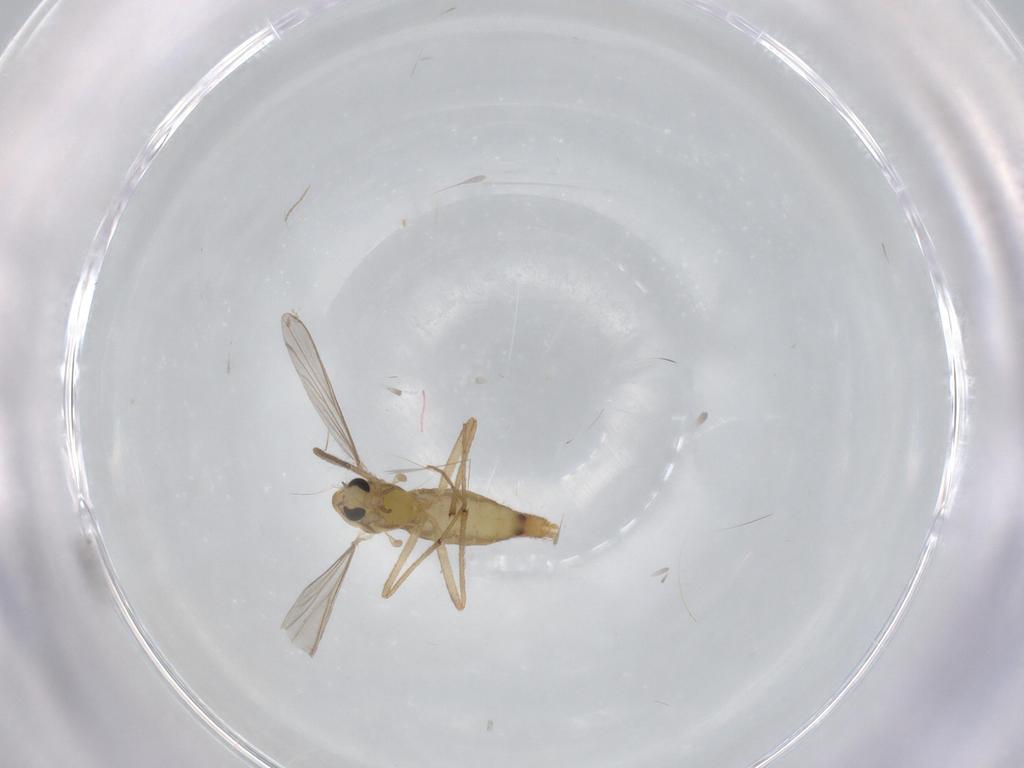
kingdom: Animalia
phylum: Arthropoda
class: Insecta
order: Diptera
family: Chironomidae
